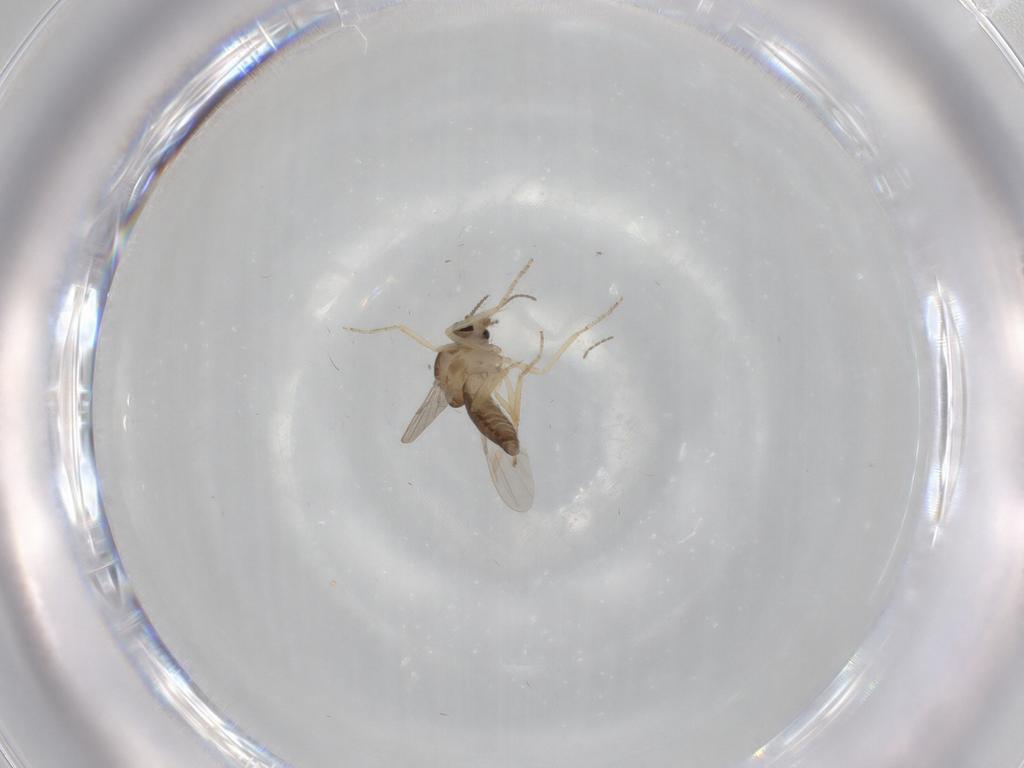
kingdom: Animalia
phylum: Arthropoda
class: Insecta
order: Diptera
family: Ceratopogonidae
